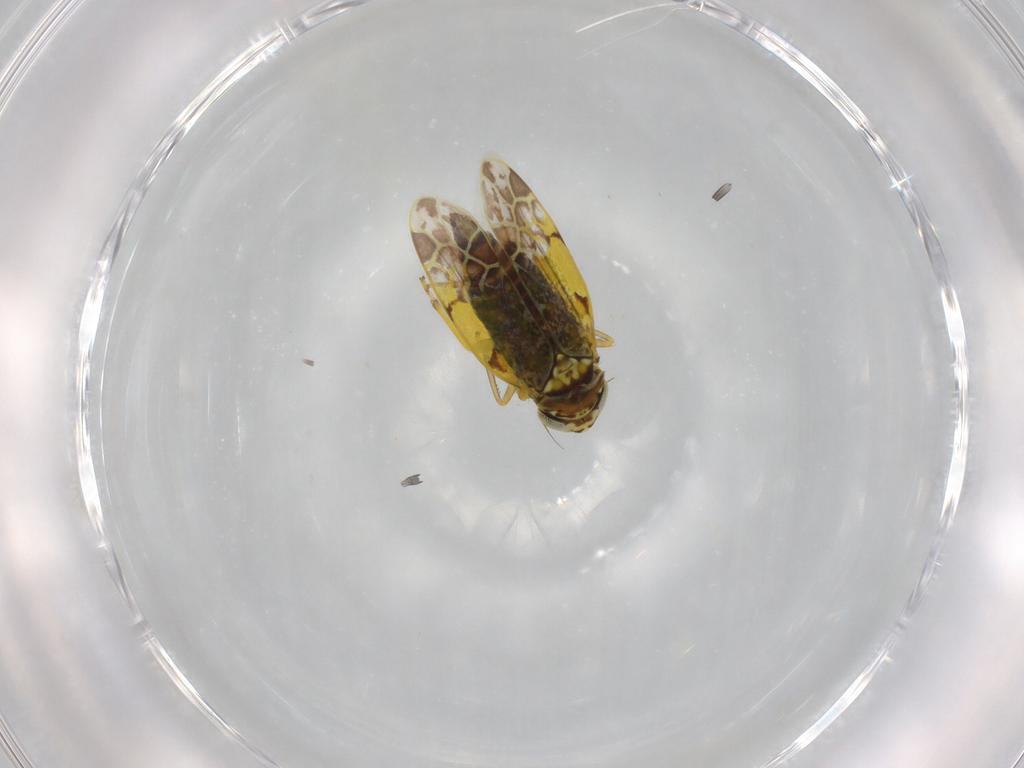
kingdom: Animalia
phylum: Arthropoda
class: Insecta
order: Hemiptera
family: Cicadellidae
